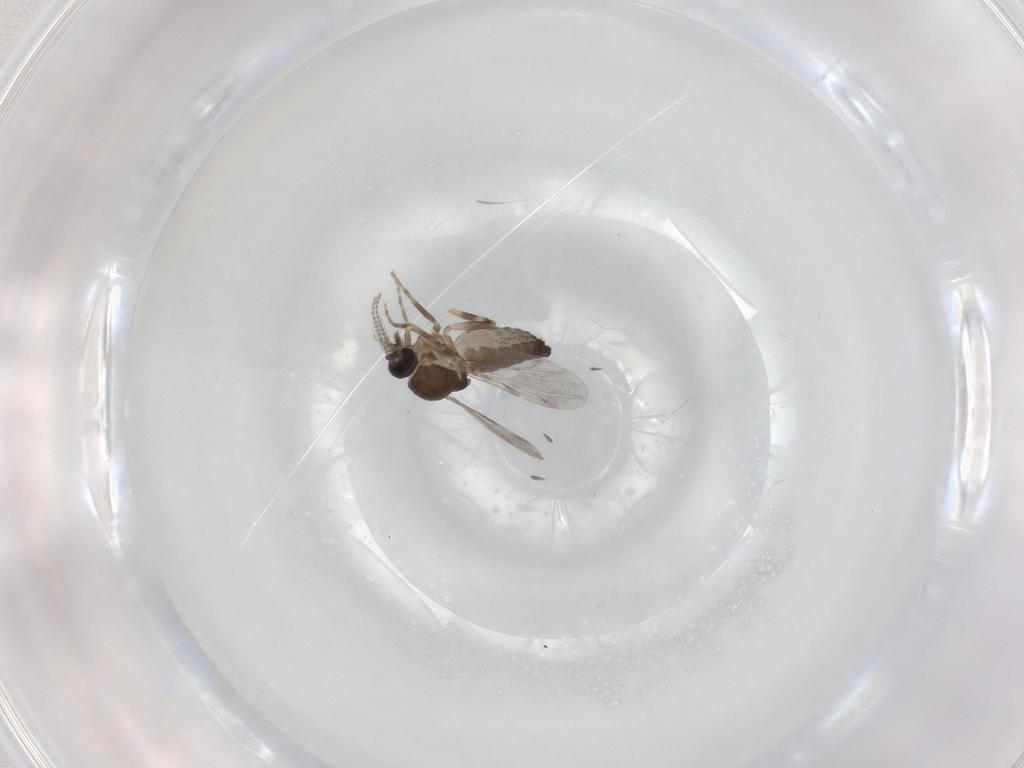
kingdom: Animalia
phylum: Arthropoda
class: Insecta
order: Diptera
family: Ceratopogonidae
